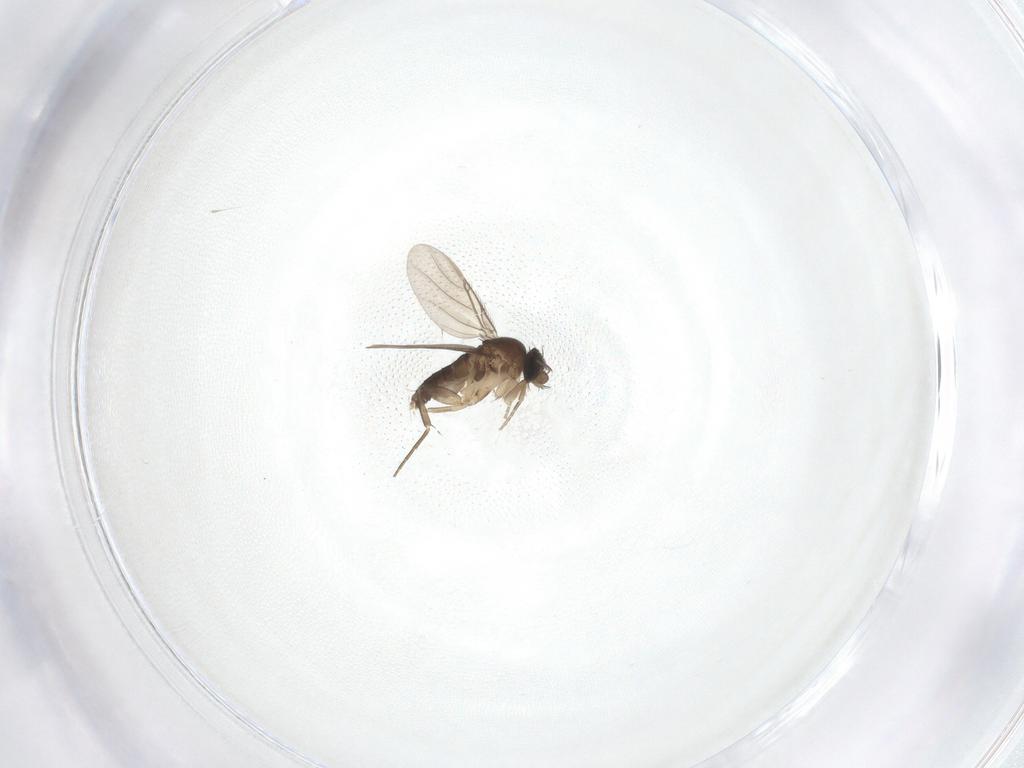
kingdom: Animalia
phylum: Arthropoda
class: Insecta
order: Diptera
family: Phoridae
